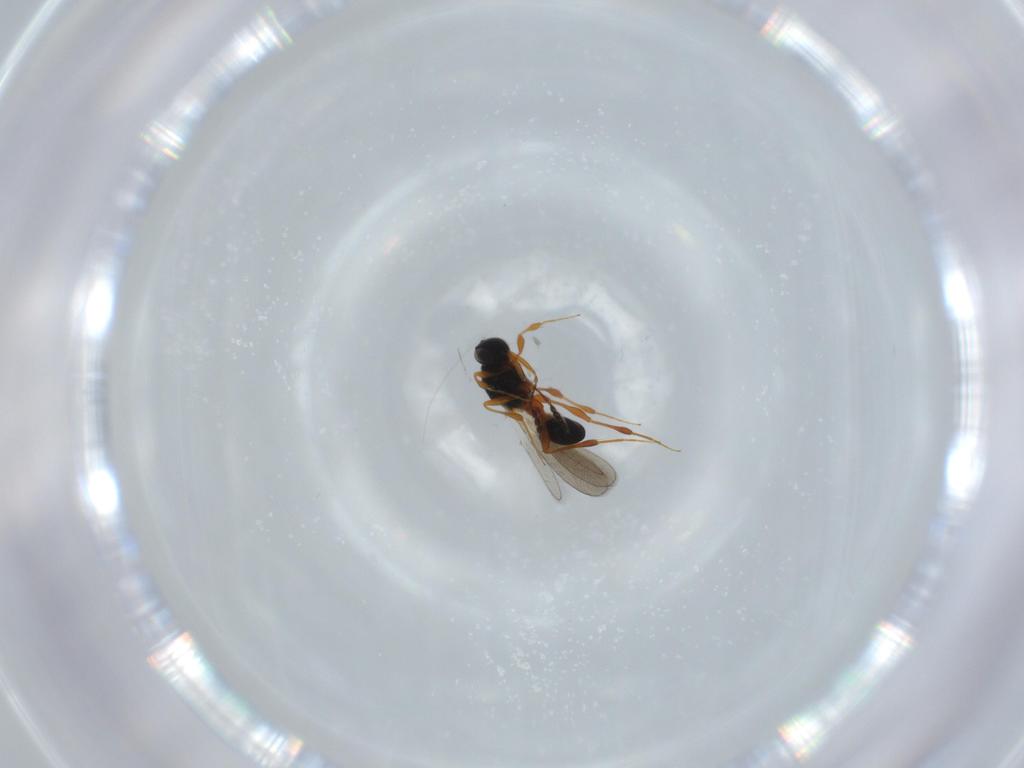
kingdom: Animalia
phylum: Arthropoda
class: Insecta
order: Hymenoptera
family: Platygastridae
